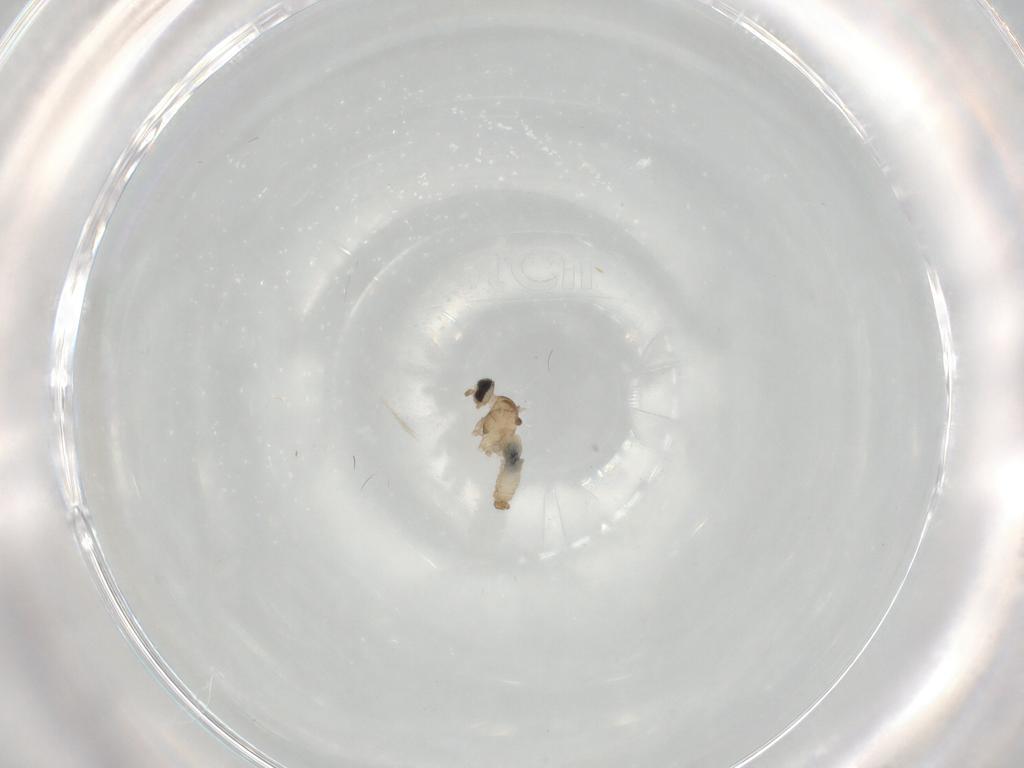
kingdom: Animalia
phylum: Arthropoda
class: Insecta
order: Diptera
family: Cecidomyiidae
